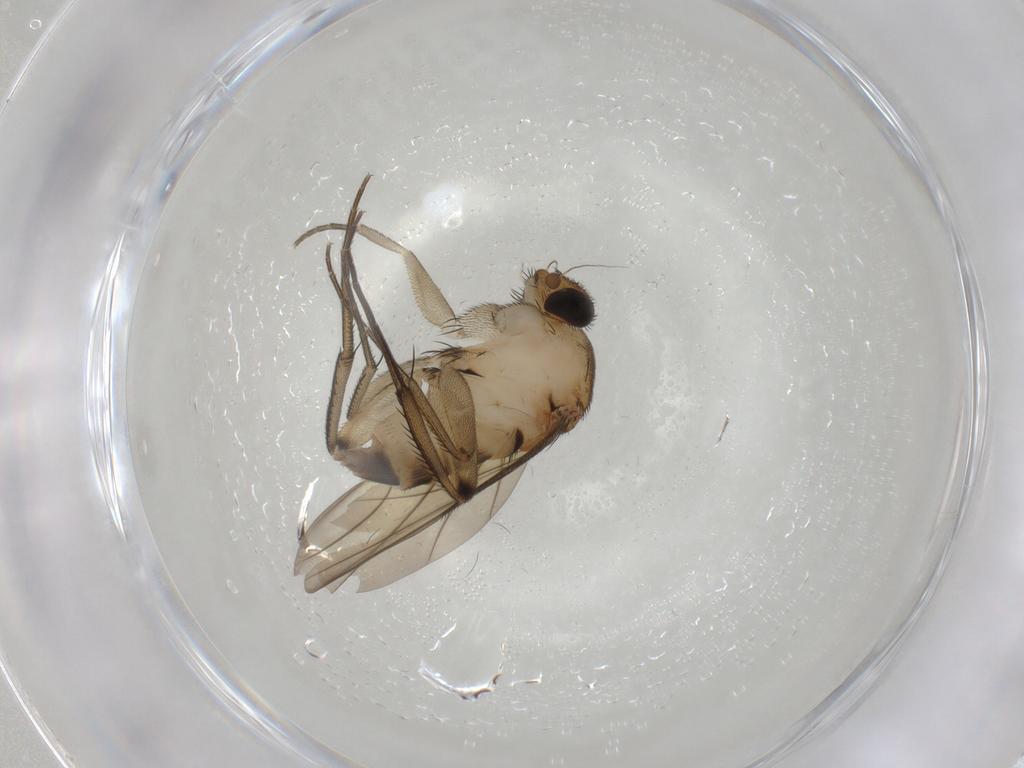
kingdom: Animalia
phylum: Arthropoda
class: Insecta
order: Diptera
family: Phoridae
